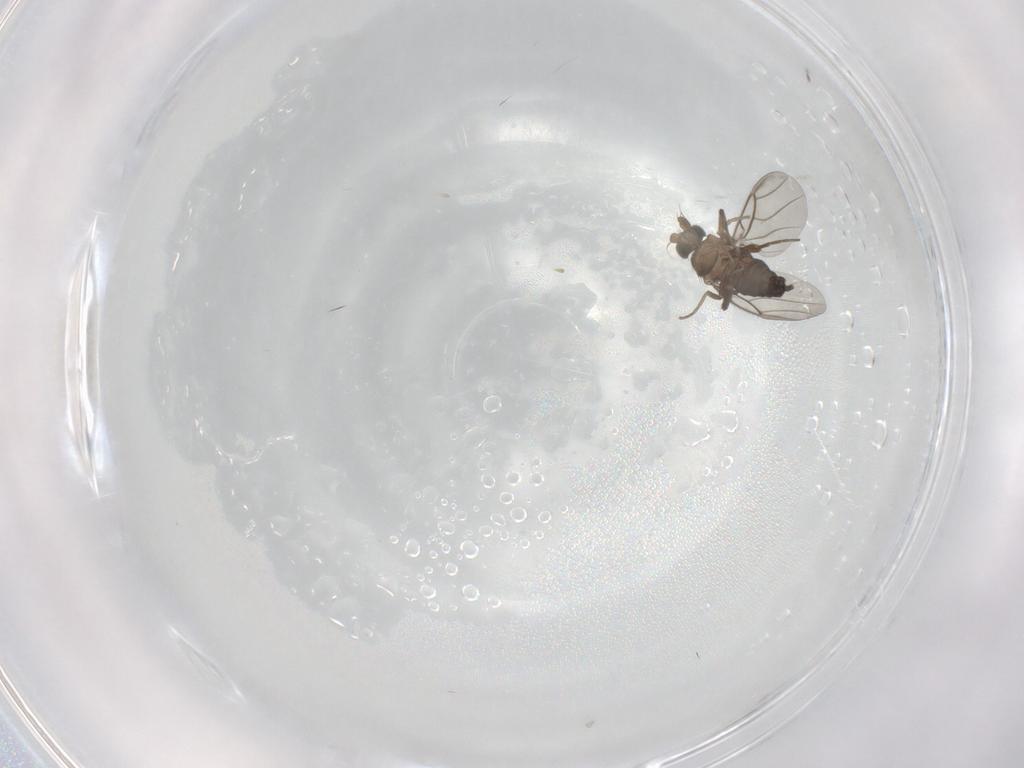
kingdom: Animalia
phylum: Arthropoda
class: Insecta
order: Diptera
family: Phoridae
